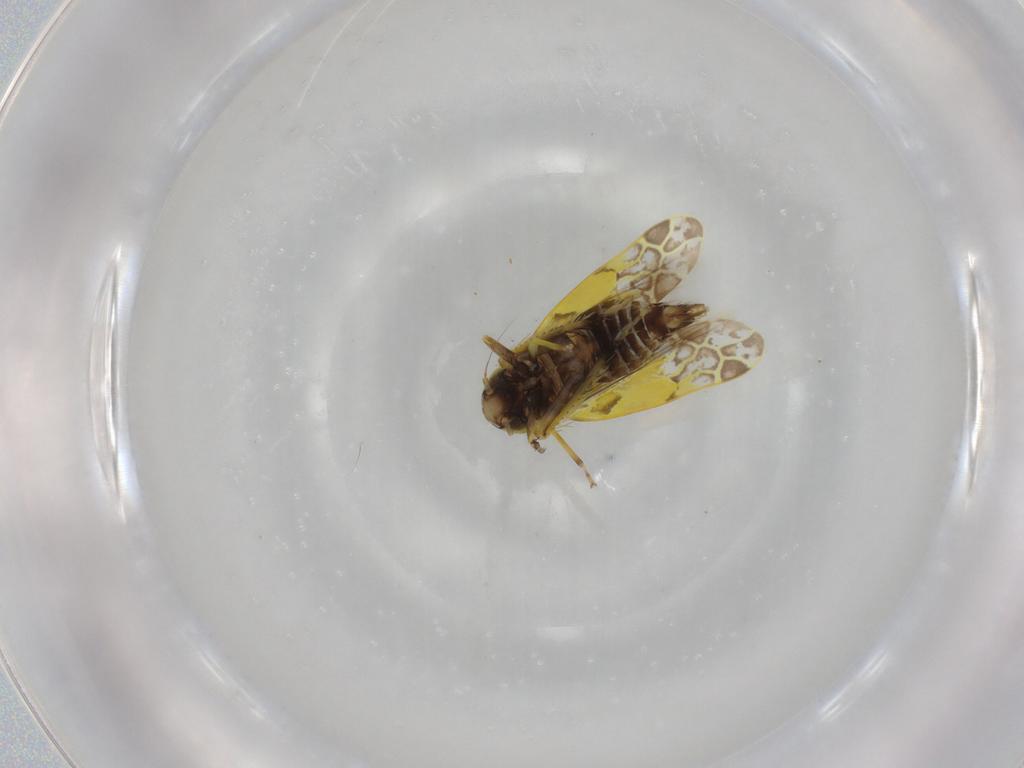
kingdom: Animalia
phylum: Arthropoda
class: Insecta
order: Hemiptera
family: Cicadellidae
